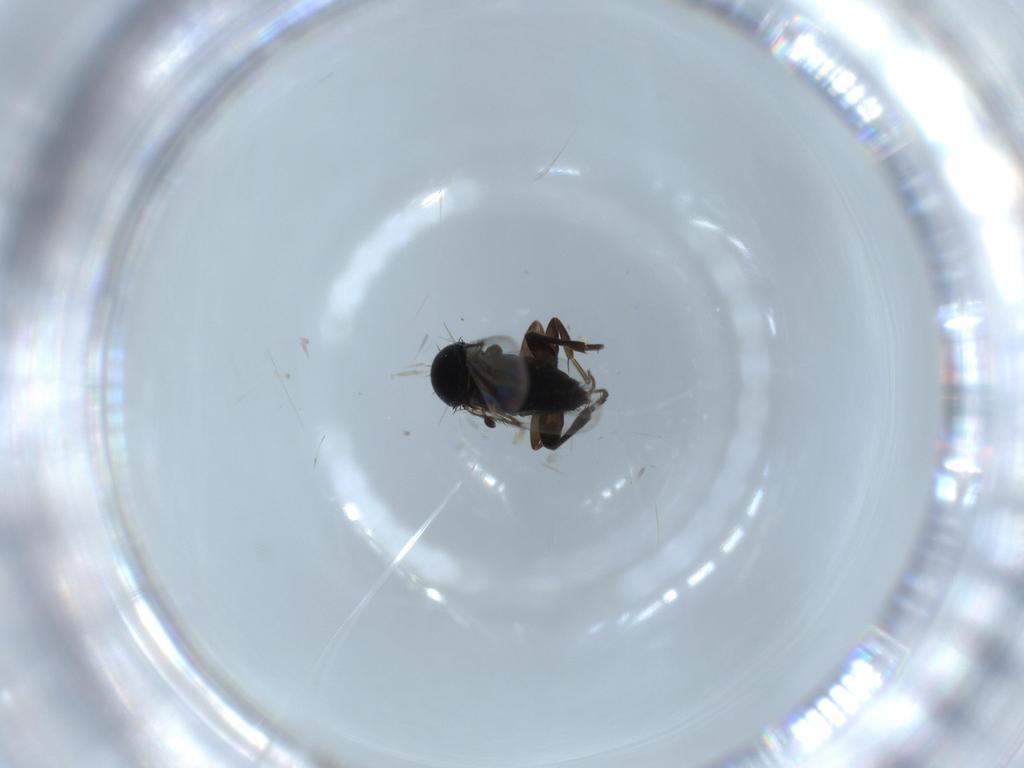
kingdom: Animalia
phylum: Arthropoda
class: Insecta
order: Diptera
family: Phoridae
